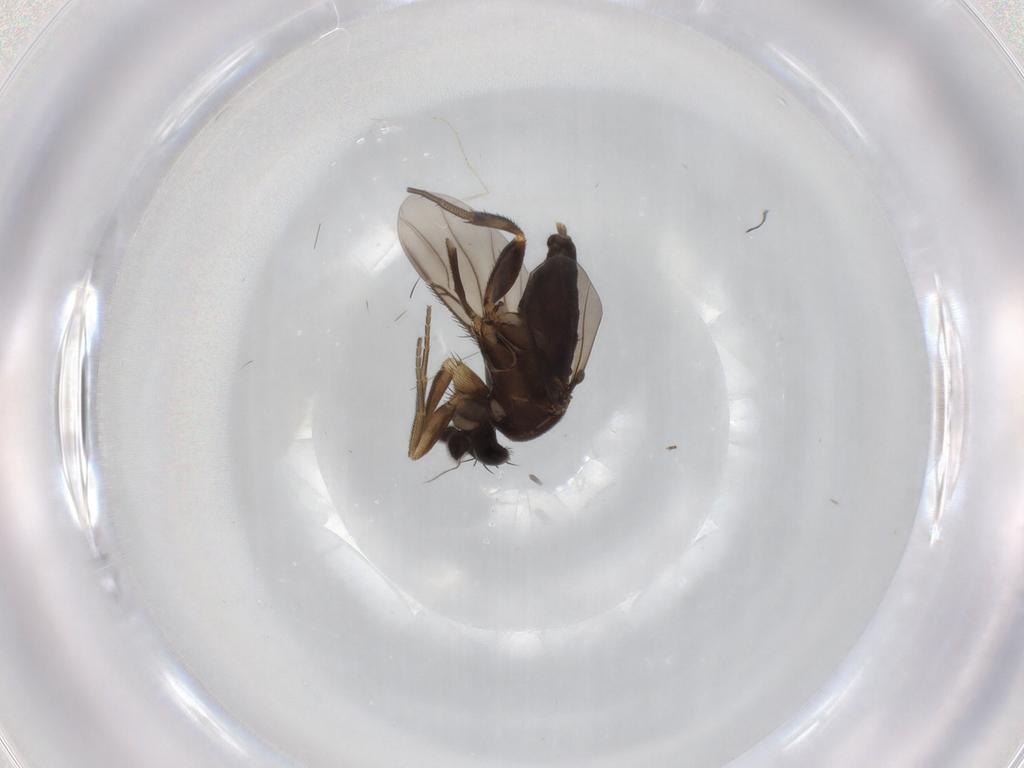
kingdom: Animalia
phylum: Arthropoda
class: Insecta
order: Diptera
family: Phoridae
